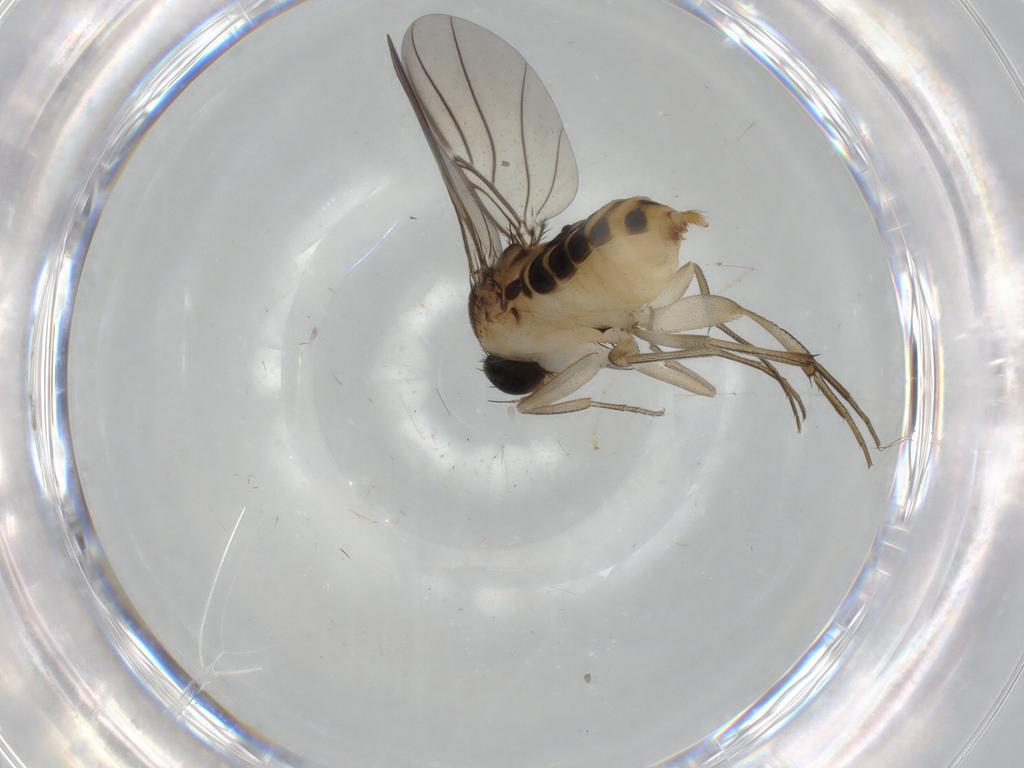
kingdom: Animalia
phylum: Arthropoda
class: Insecta
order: Diptera
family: Phoridae
